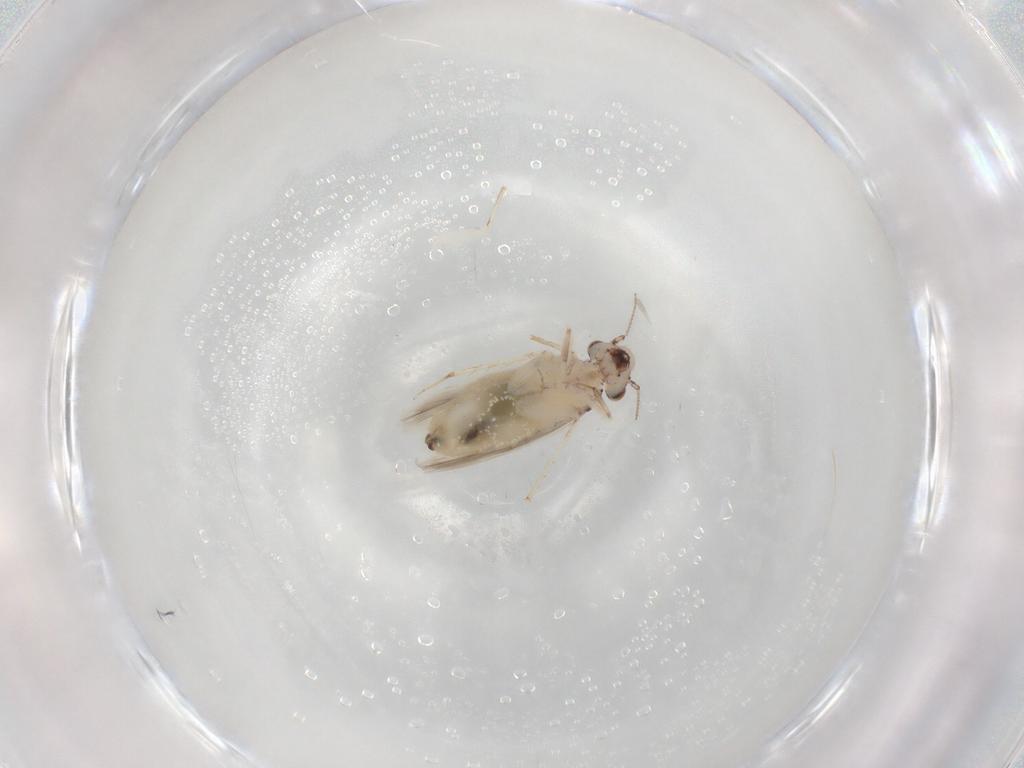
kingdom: Animalia
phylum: Arthropoda
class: Insecta
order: Psocodea
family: Lepidopsocidae
